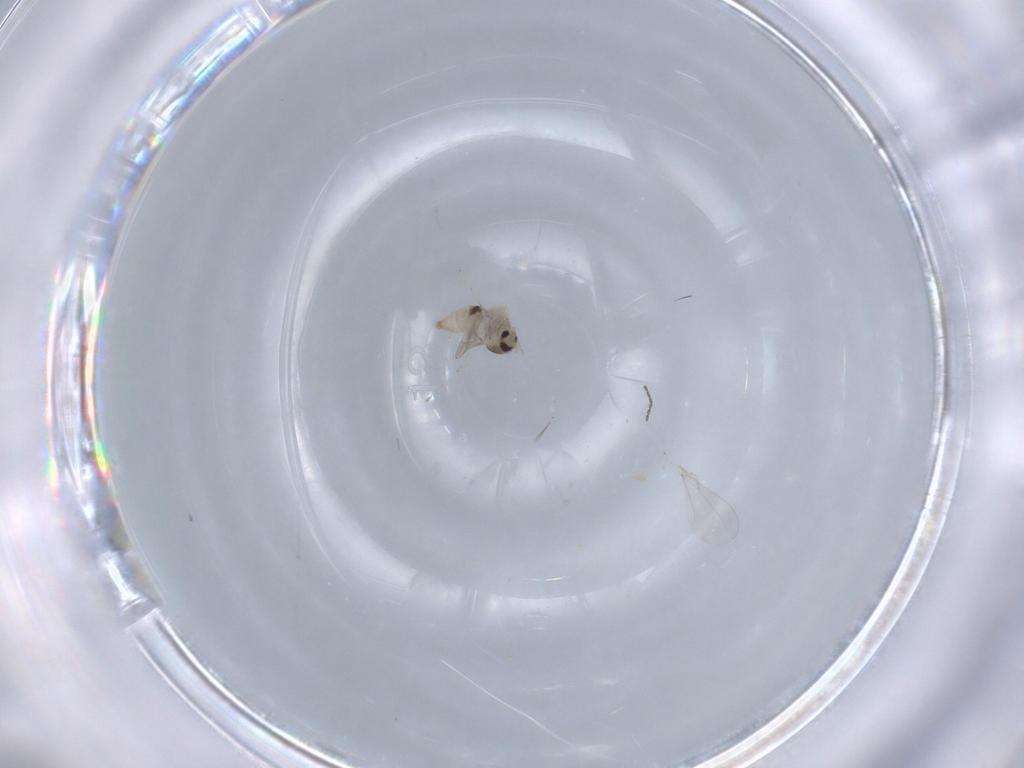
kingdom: Animalia
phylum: Arthropoda
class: Insecta
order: Diptera
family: Cecidomyiidae
